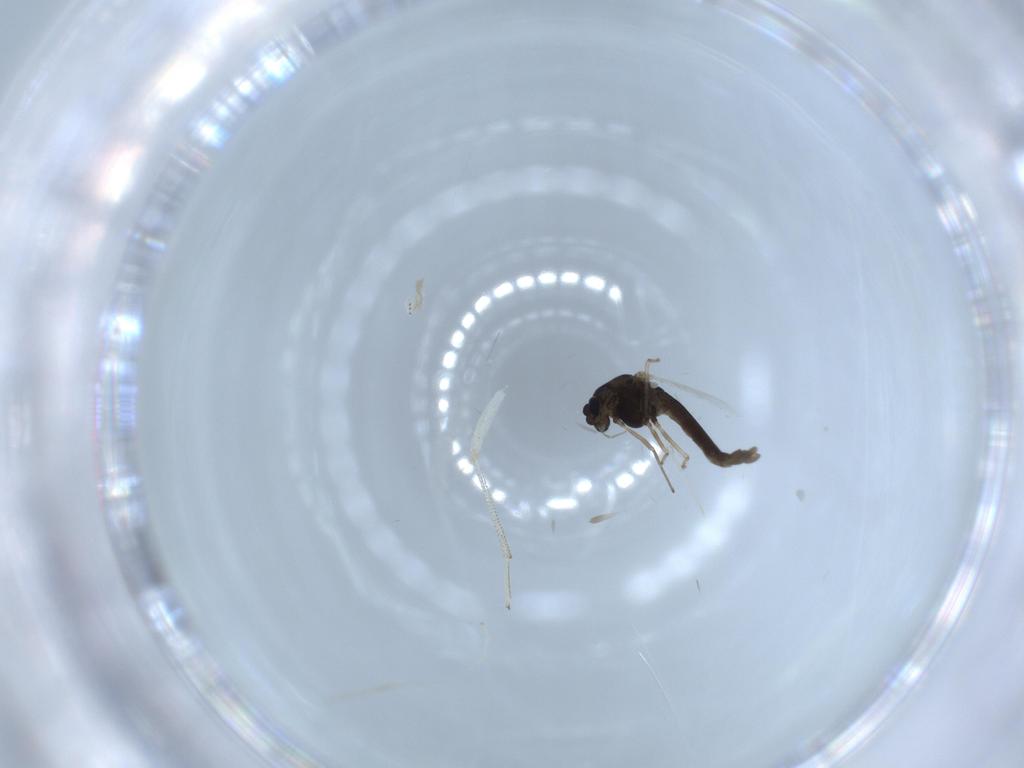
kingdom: Animalia
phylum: Arthropoda
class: Insecta
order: Diptera
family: Chironomidae
